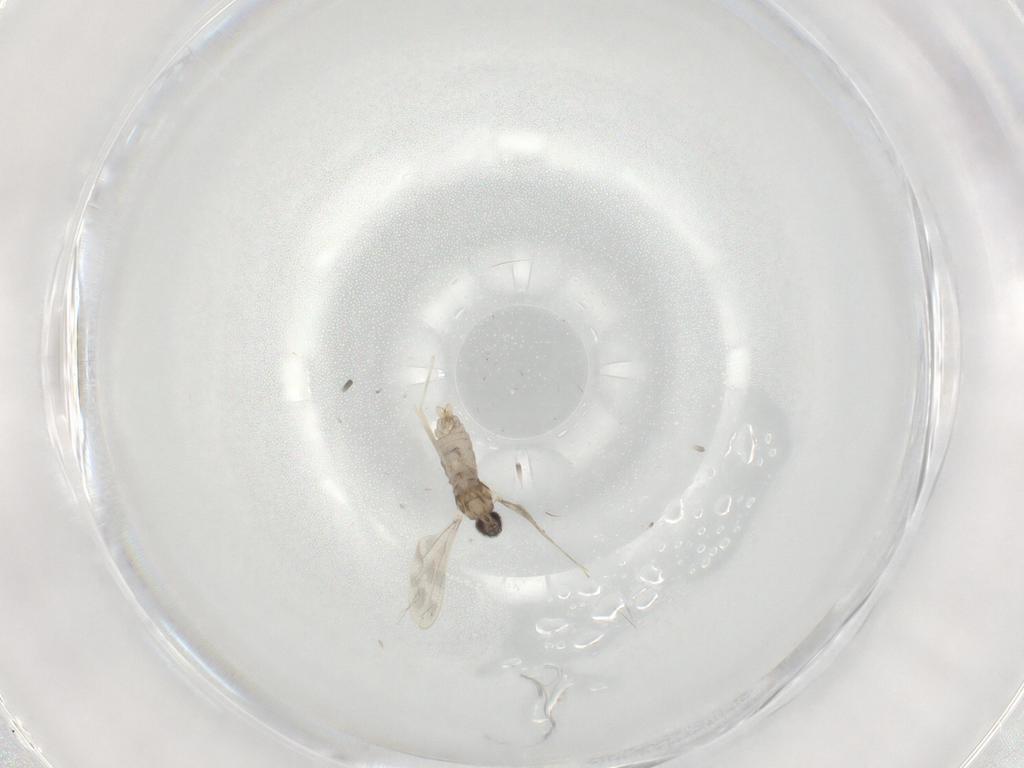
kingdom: Animalia
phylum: Arthropoda
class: Insecta
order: Diptera
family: Cecidomyiidae
